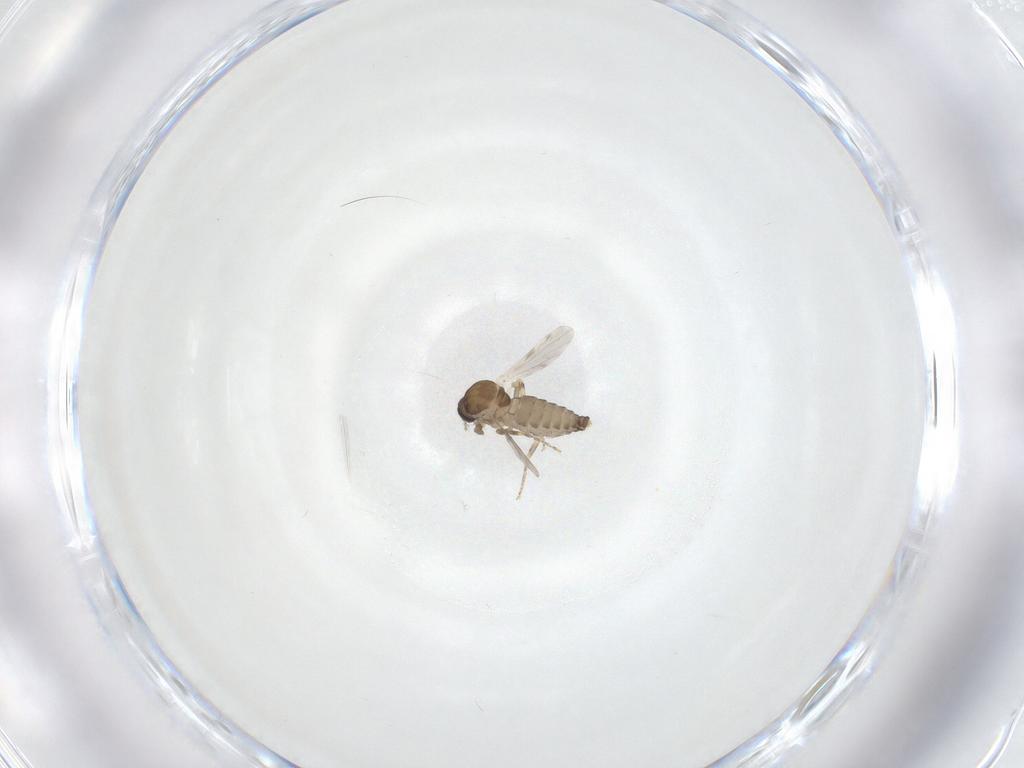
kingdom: Animalia
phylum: Arthropoda
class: Insecta
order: Diptera
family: Ceratopogonidae
